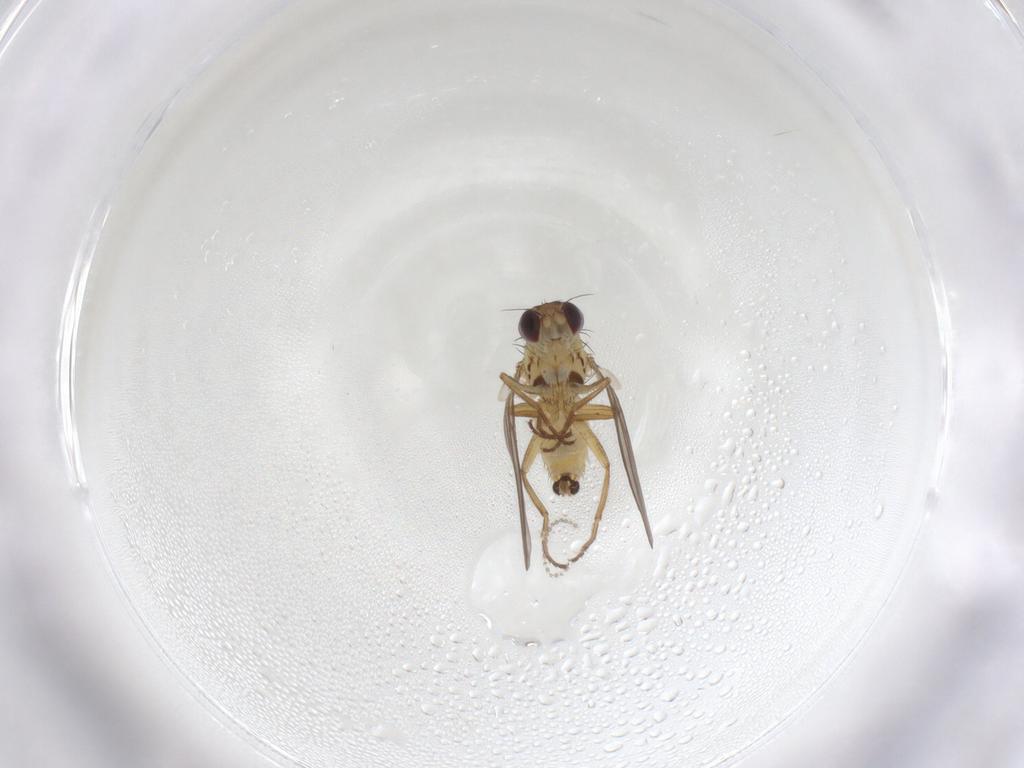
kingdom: Animalia
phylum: Arthropoda
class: Insecta
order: Diptera
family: Agromyzidae
